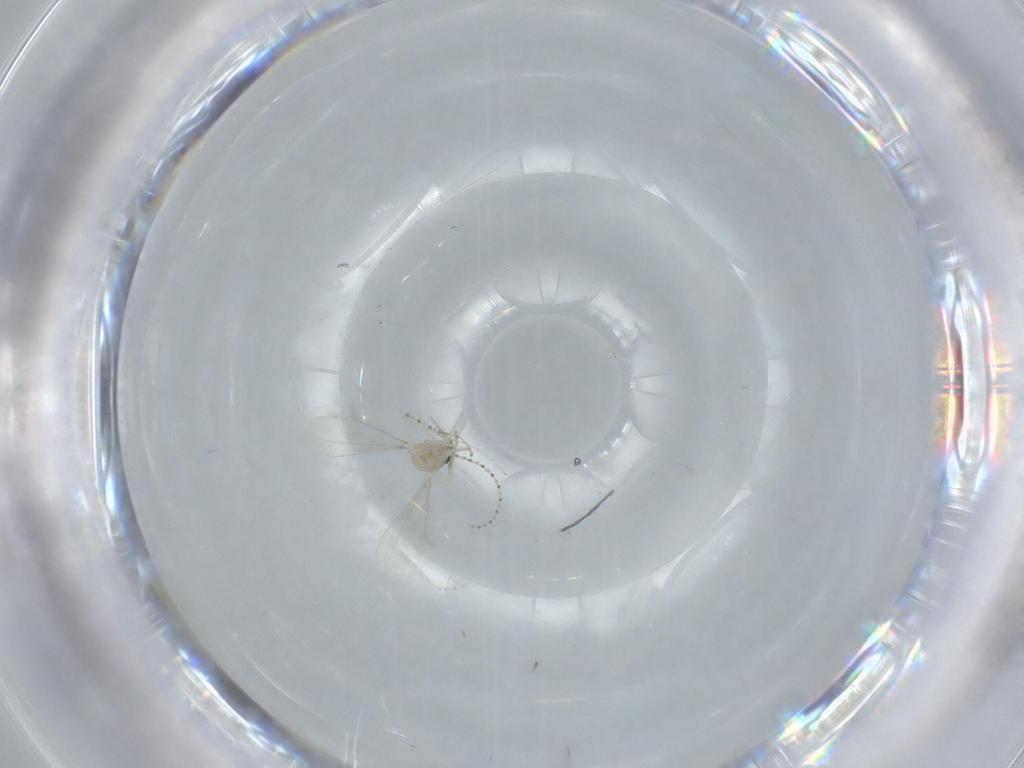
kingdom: Animalia
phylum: Arthropoda
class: Insecta
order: Diptera
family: Cecidomyiidae
